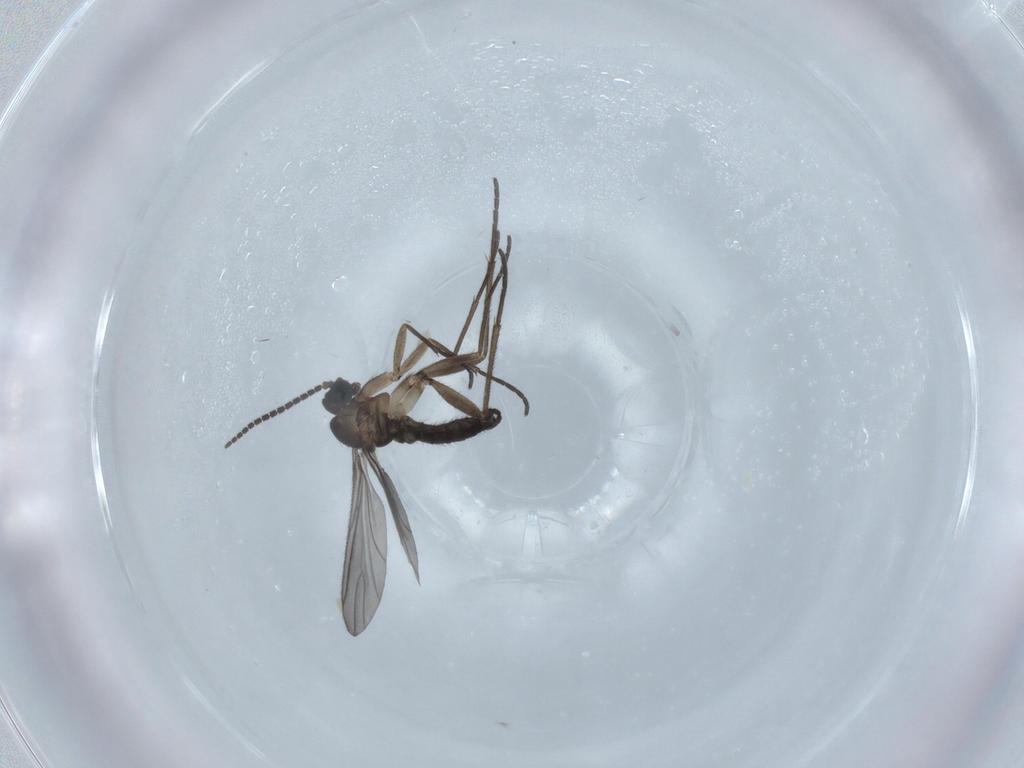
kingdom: Animalia
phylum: Arthropoda
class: Insecta
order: Diptera
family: Sciaridae
